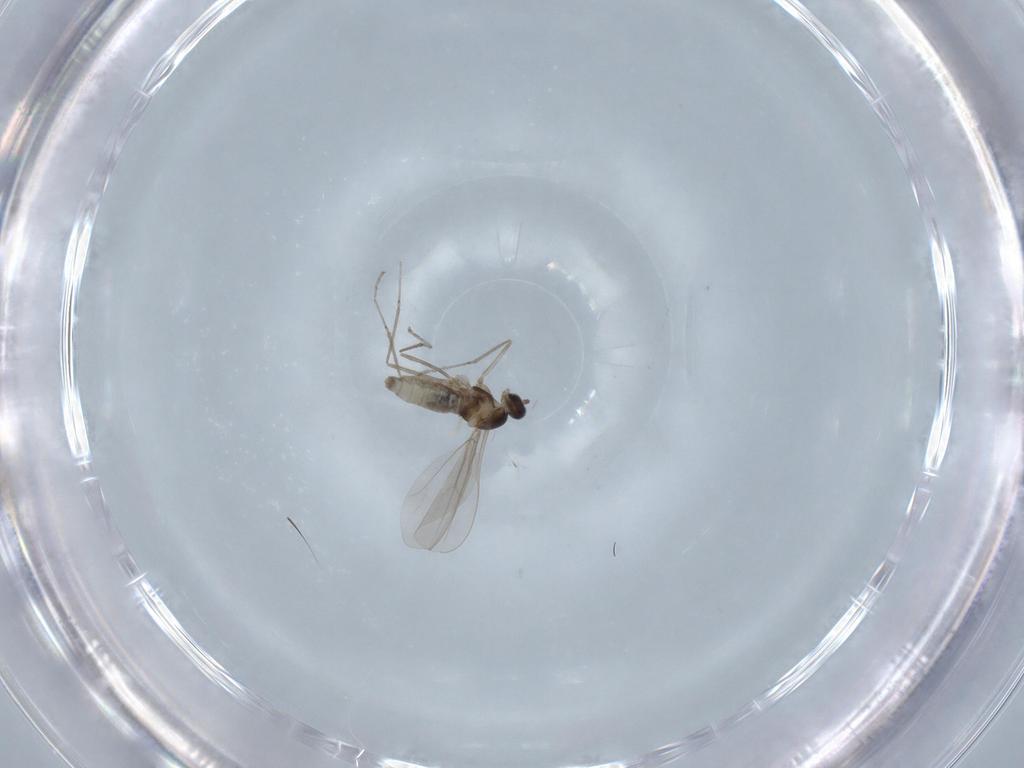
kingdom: Animalia
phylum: Arthropoda
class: Insecta
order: Diptera
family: Cecidomyiidae
